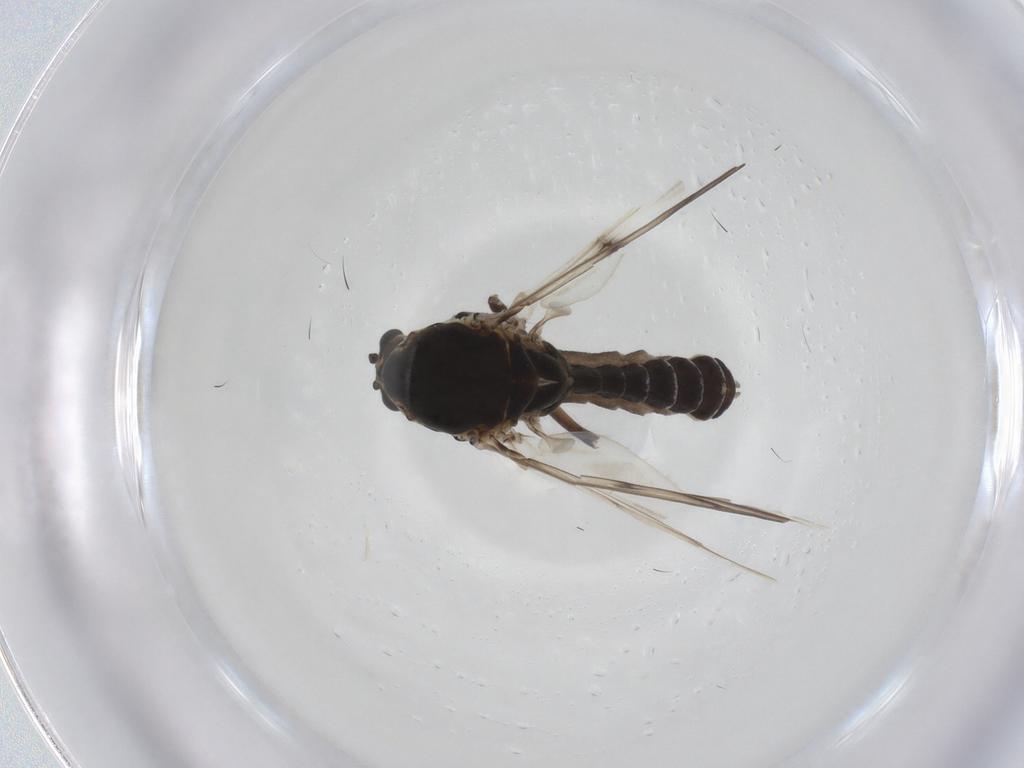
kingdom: Animalia
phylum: Arthropoda
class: Insecta
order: Diptera
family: Chironomidae
